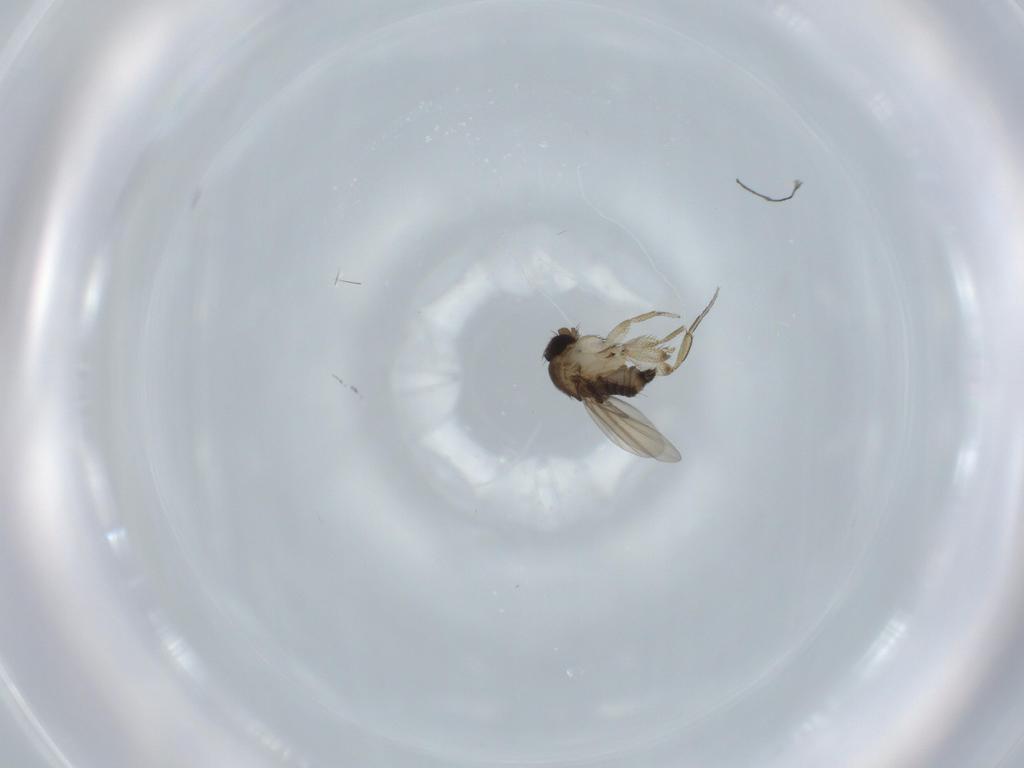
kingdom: Animalia
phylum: Arthropoda
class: Insecta
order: Diptera
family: Phoridae
